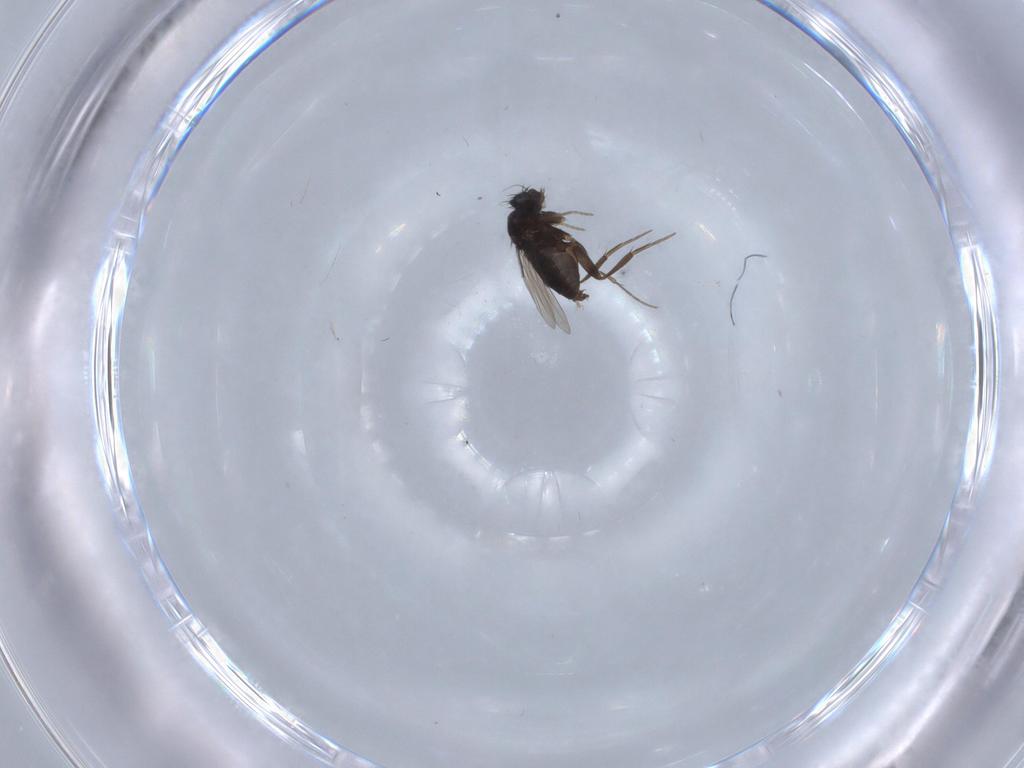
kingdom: Animalia
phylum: Arthropoda
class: Insecta
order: Diptera
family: Phoridae
